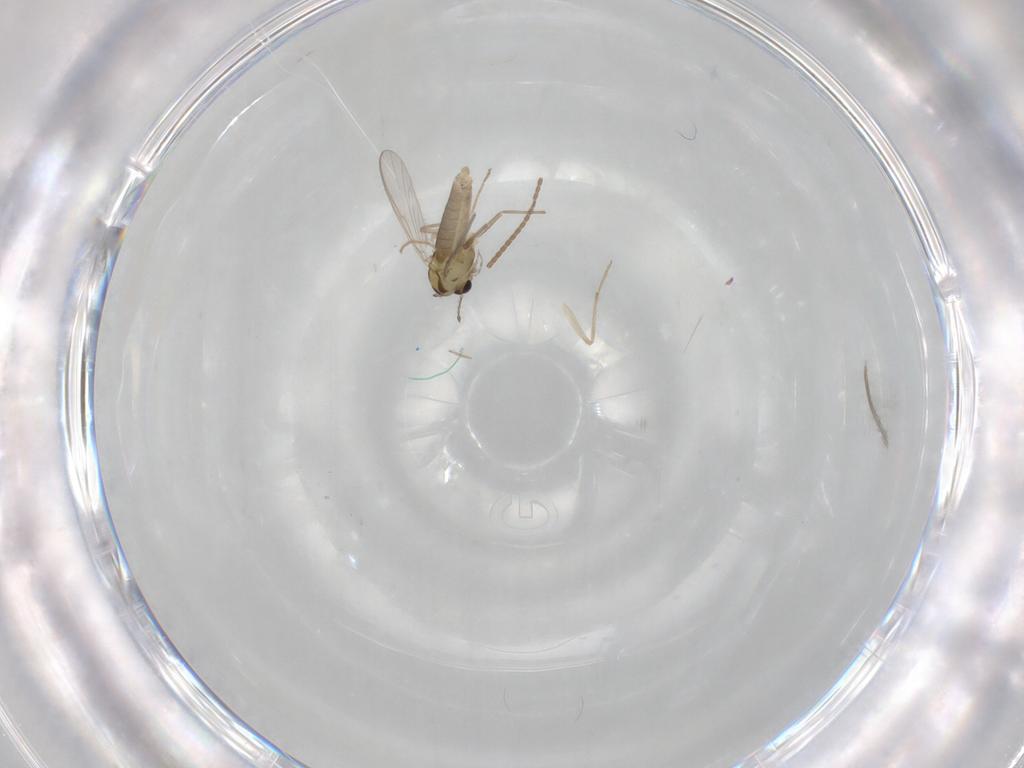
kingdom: Animalia
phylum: Arthropoda
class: Insecta
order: Diptera
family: Chironomidae
